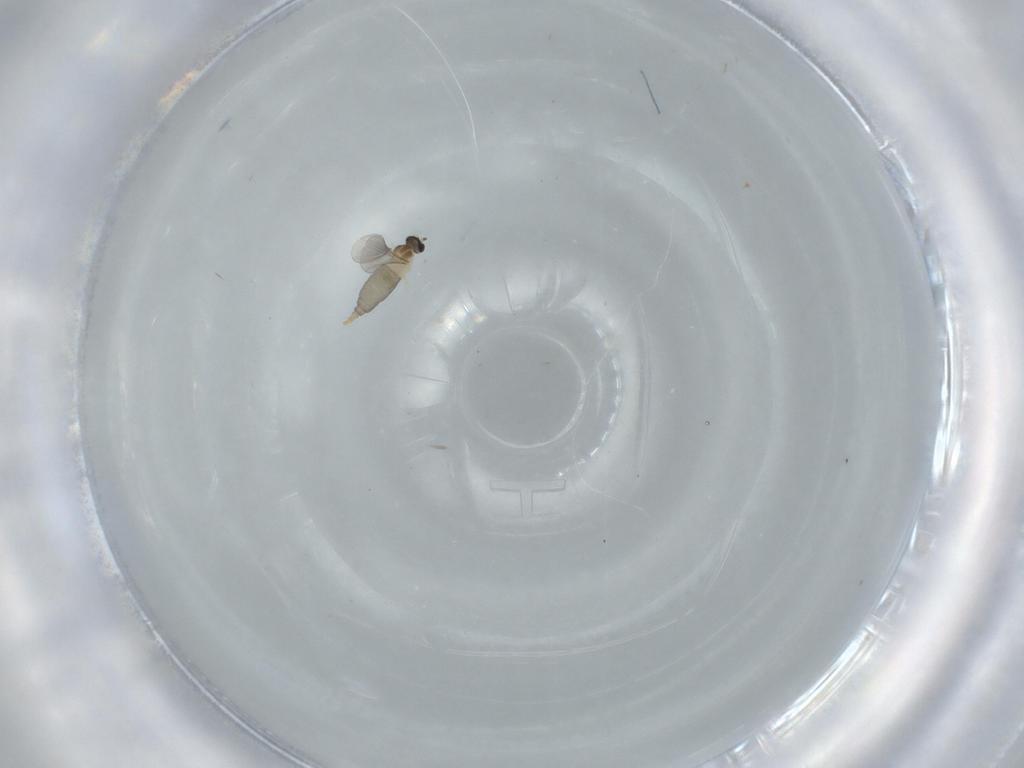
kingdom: Animalia
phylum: Arthropoda
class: Insecta
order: Diptera
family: Cecidomyiidae
